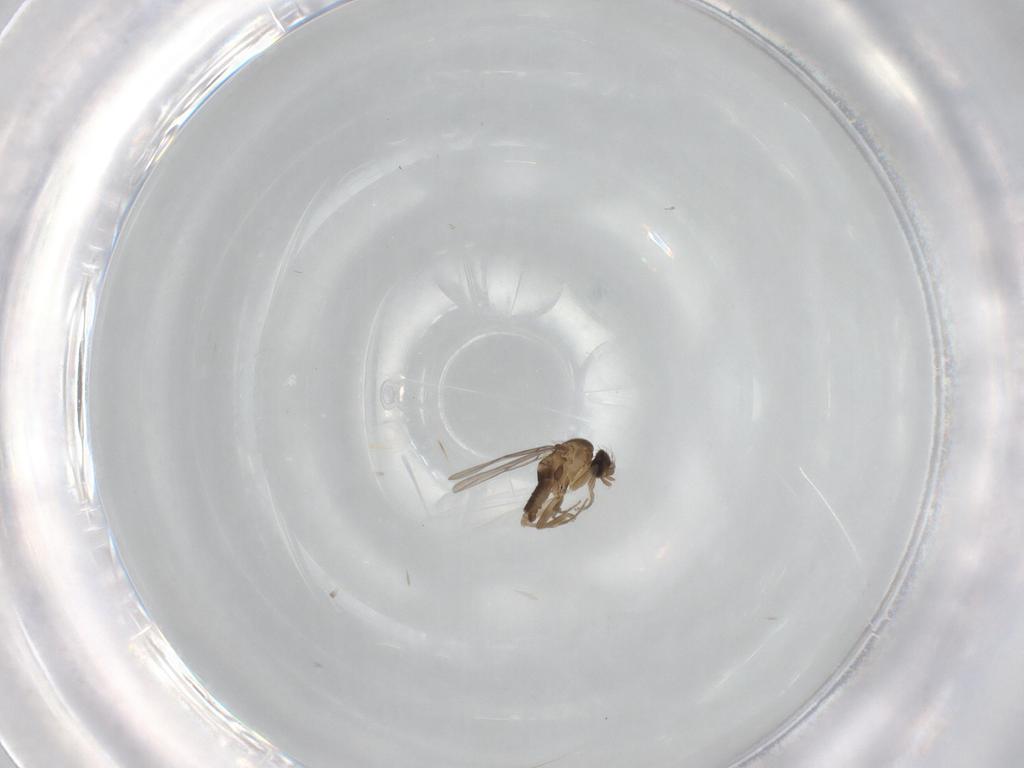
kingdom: Animalia
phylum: Arthropoda
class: Insecta
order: Diptera
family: Phoridae
